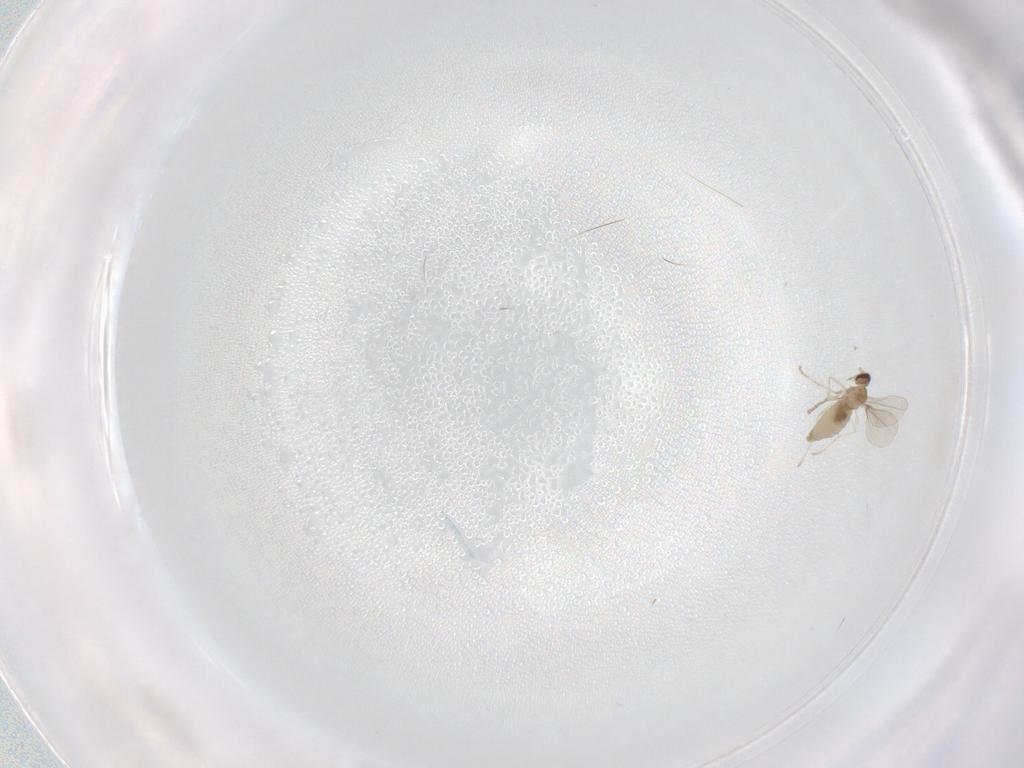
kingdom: Animalia
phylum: Arthropoda
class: Insecta
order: Diptera
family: Cecidomyiidae
